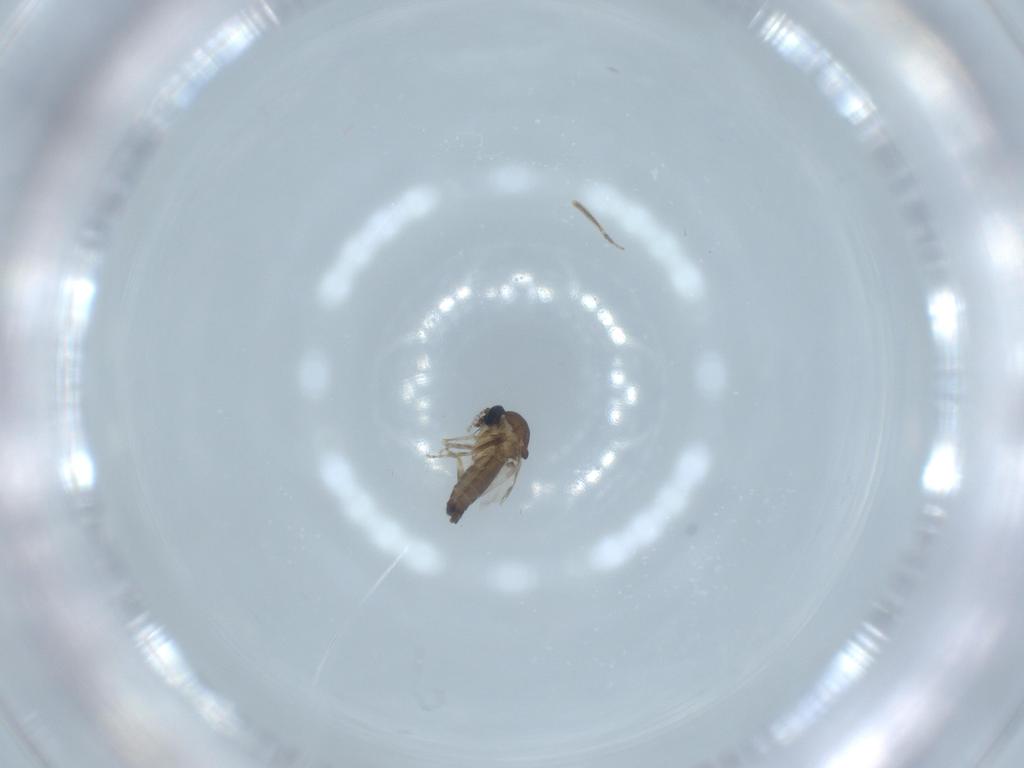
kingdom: Animalia
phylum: Arthropoda
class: Insecta
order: Diptera
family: Ceratopogonidae
